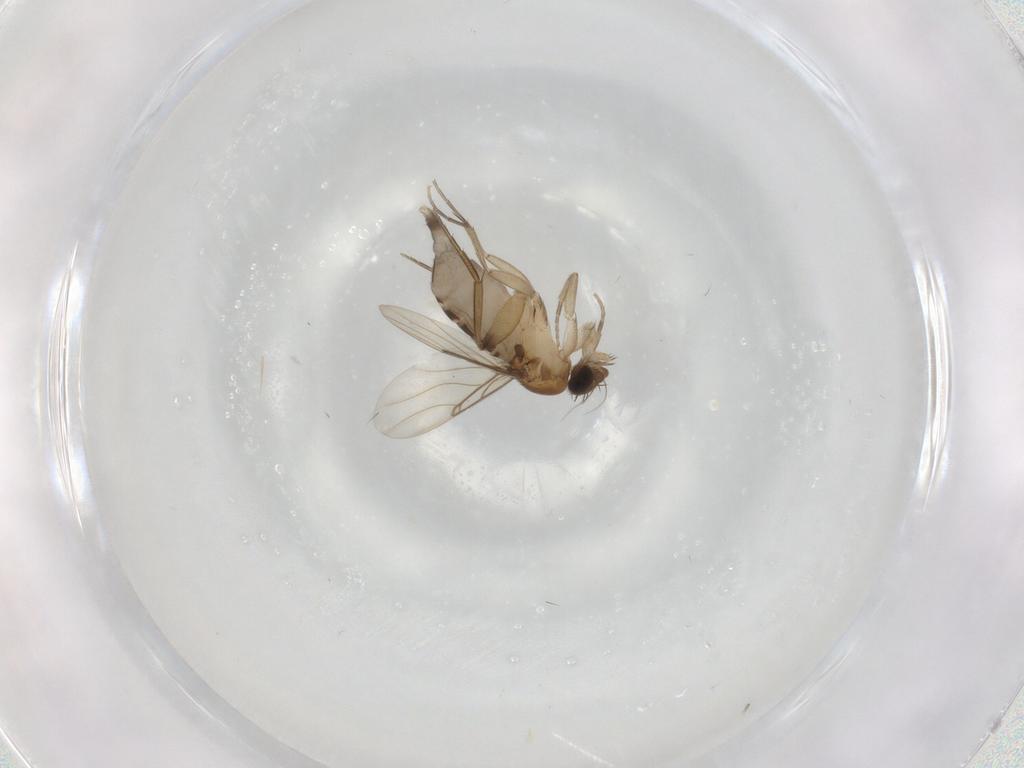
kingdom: Animalia
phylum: Arthropoda
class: Insecta
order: Diptera
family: Phoridae
